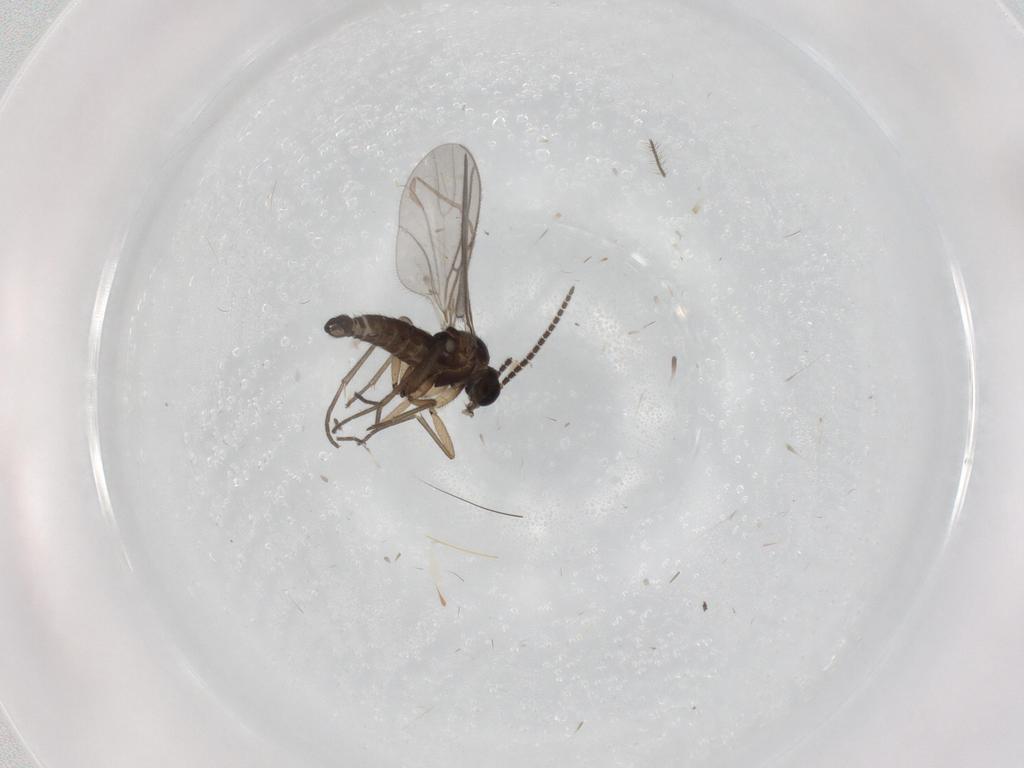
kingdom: Animalia
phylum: Arthropoda
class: Insecta
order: Diptera
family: Sciaridae
